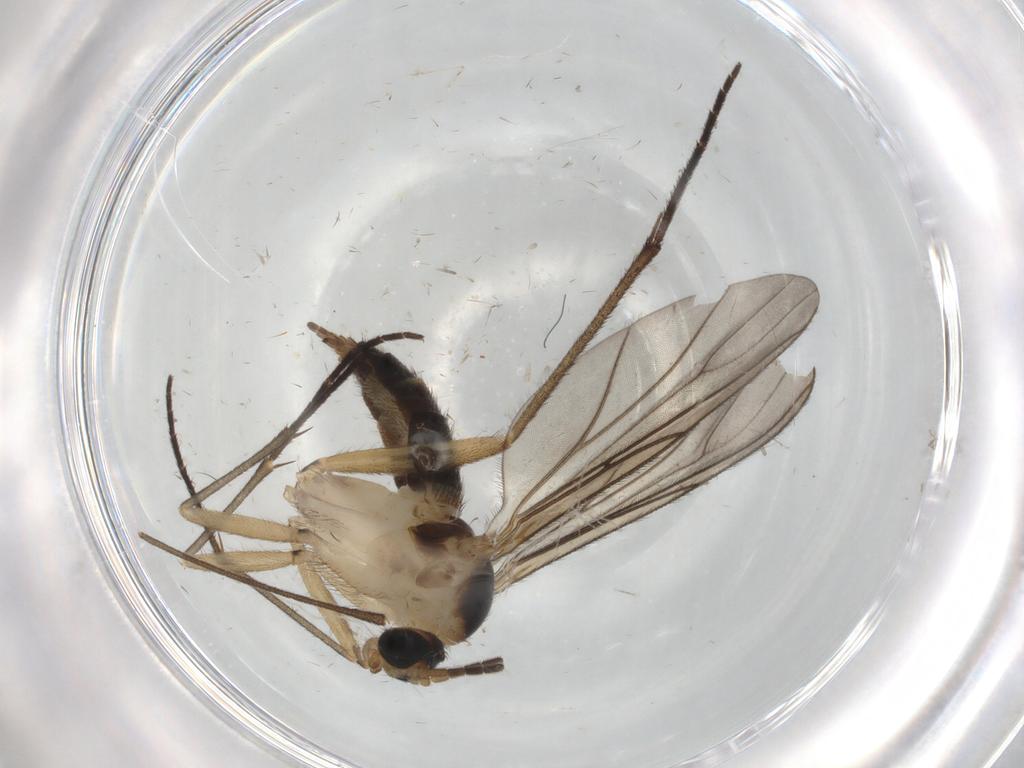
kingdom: Animalia
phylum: Arthropoda
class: Insecta
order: Diptera
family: Sciaridae
